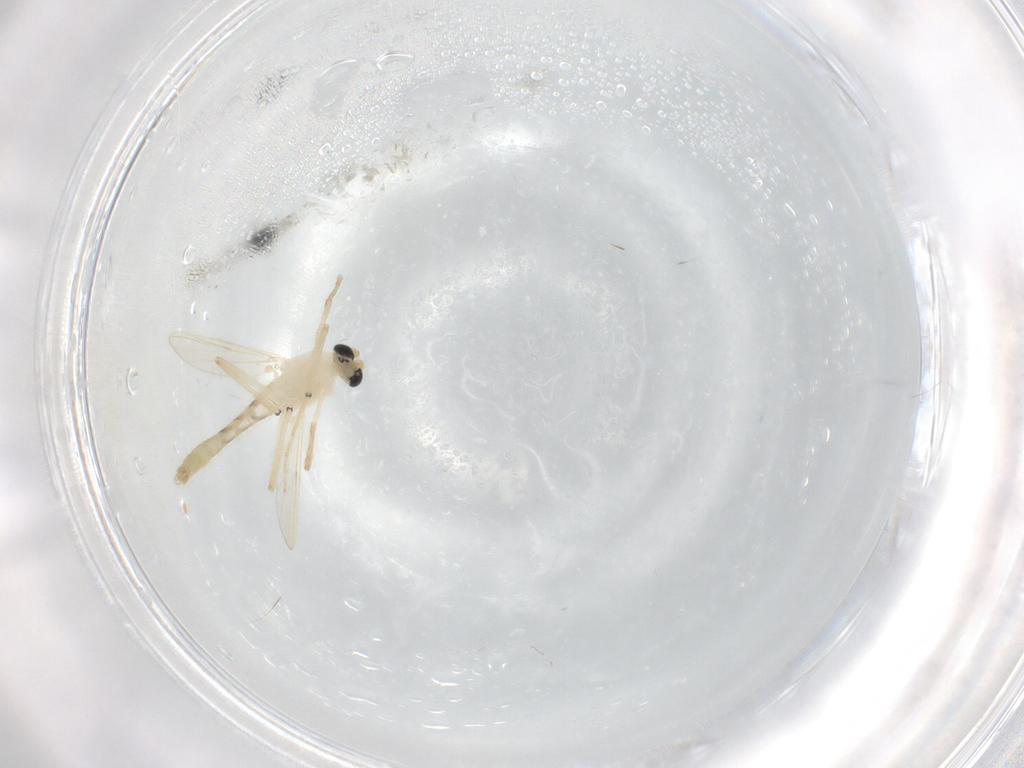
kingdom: Animalia
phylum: Arthropoda
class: Insecta
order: Diptera
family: Chironomidae
